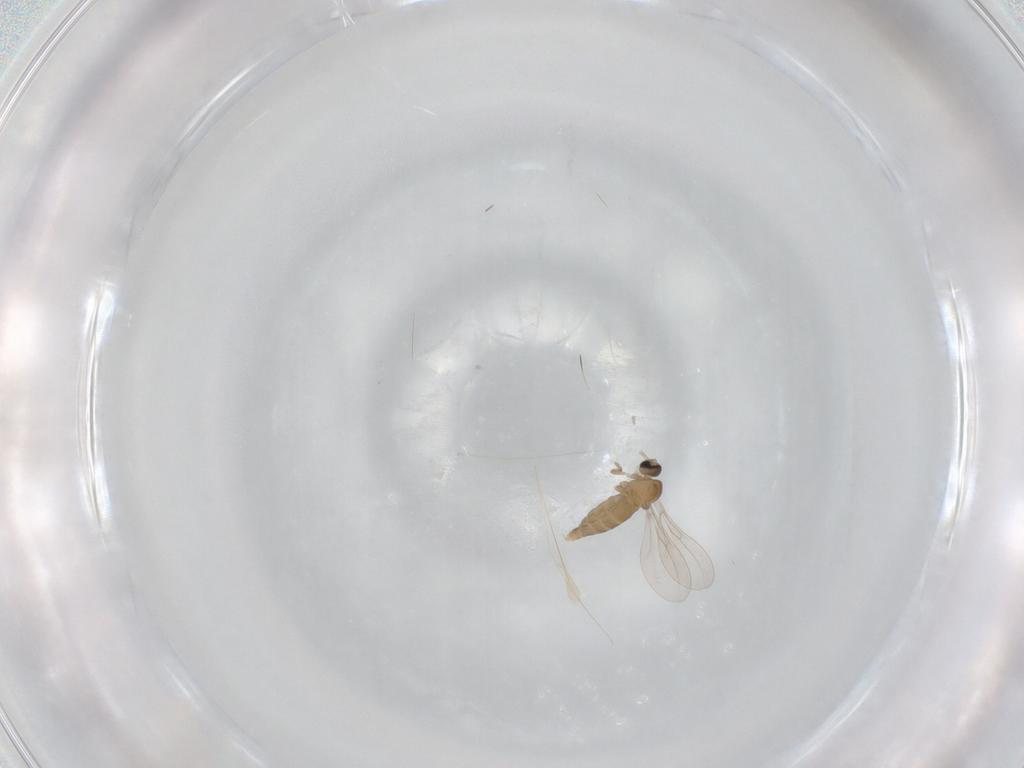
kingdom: Animalia
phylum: Arthropoda
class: Insecta
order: Diptera
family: Cecidomyiidae
